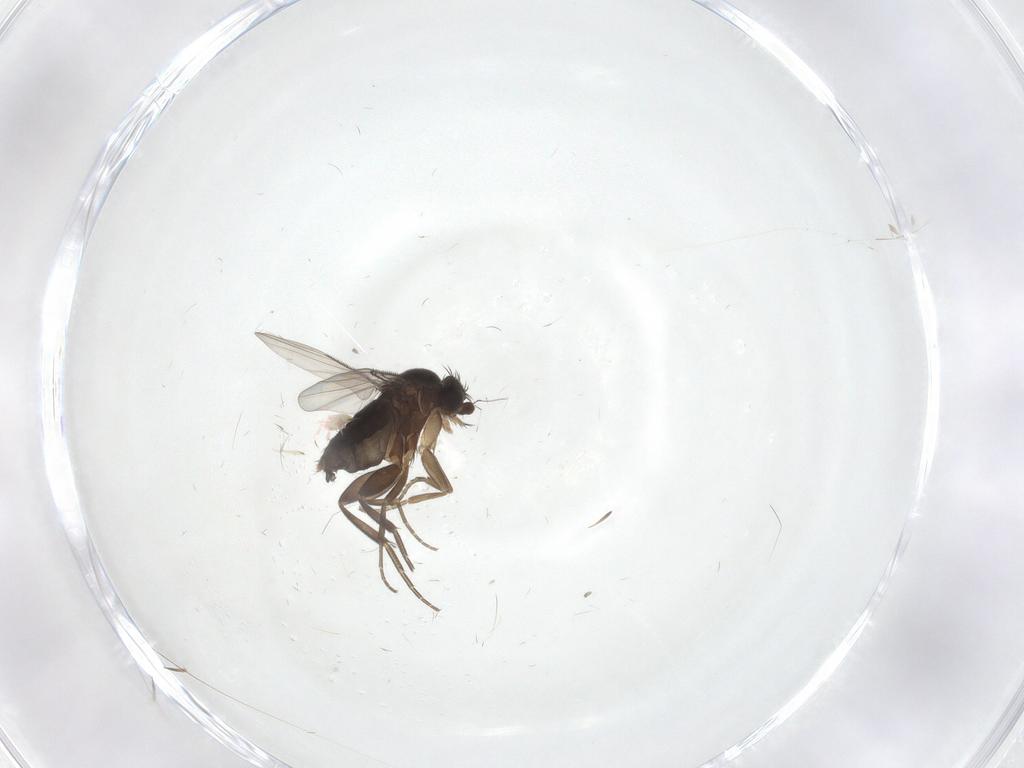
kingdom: Animalia
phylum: Arthropoda
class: Insecta
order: Diptera
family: Phoridae
